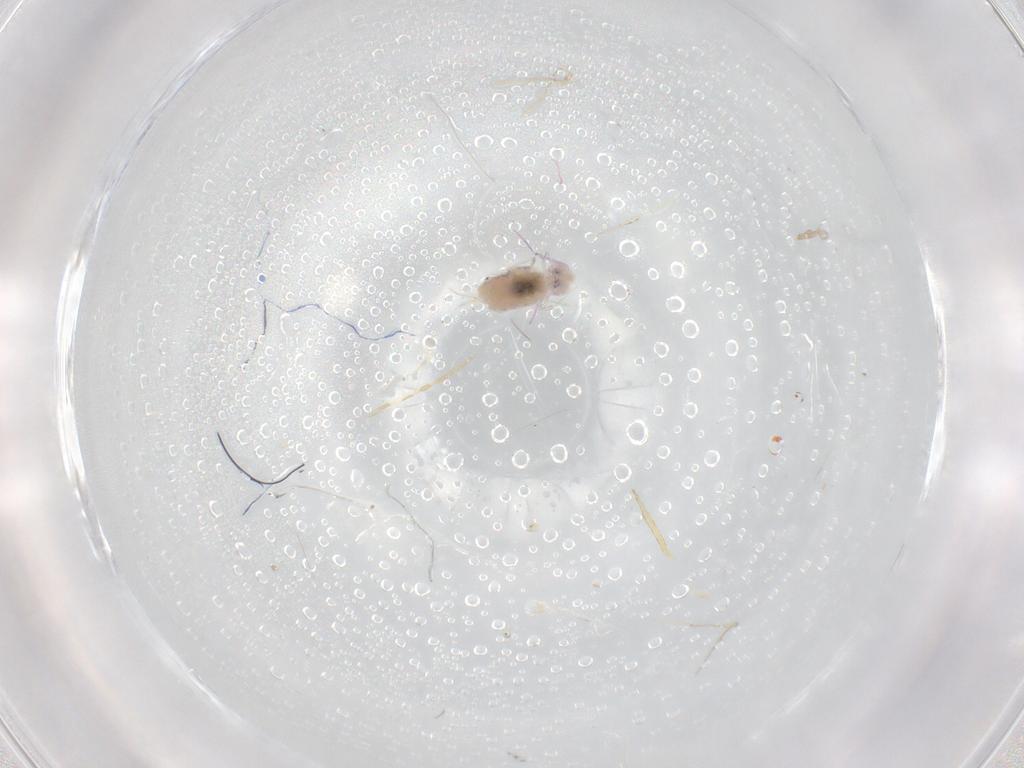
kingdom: Animalia
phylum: Arthropoda
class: Collembola
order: Symphypleona
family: Bourletiellidae
